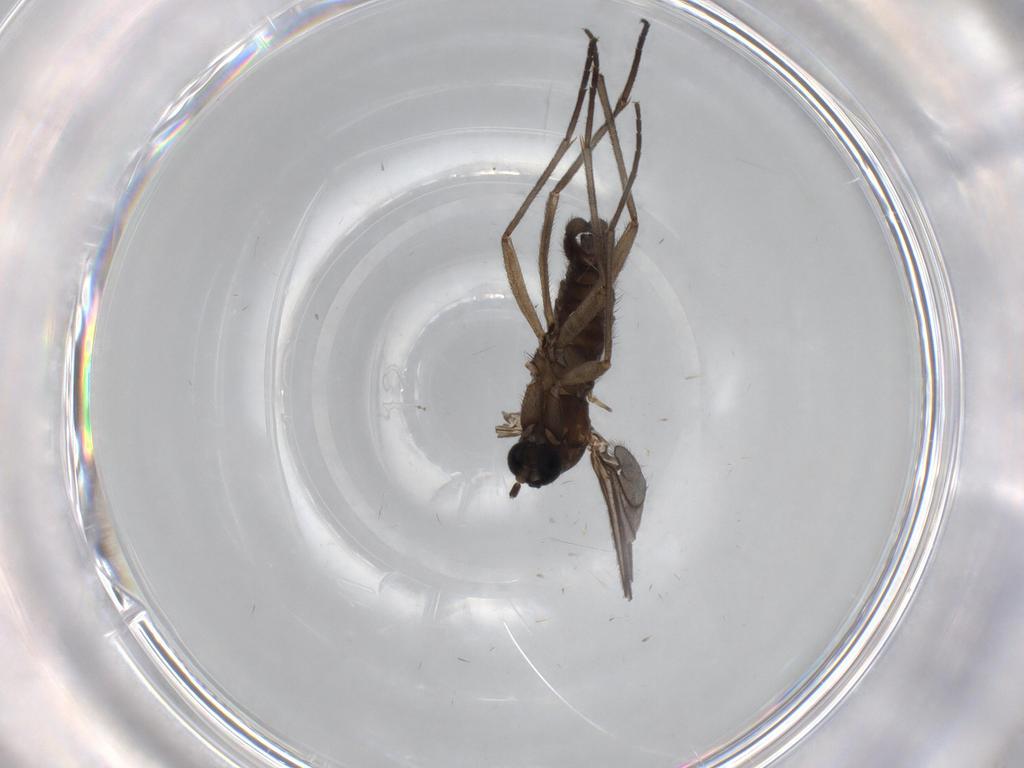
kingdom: Animalia
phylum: Arthropoda
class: Insecta
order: Diptera
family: Sciaridae
